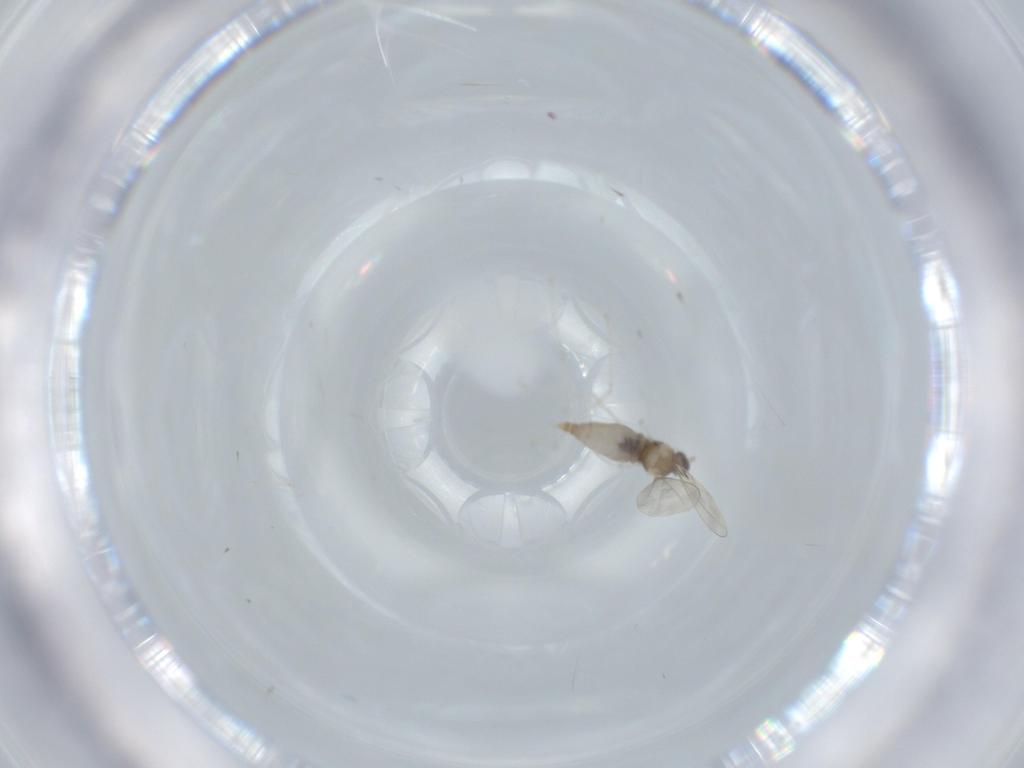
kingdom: Animalia
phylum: Arthropoda
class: Insecta
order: Diptera
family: Cecidomyiidae
